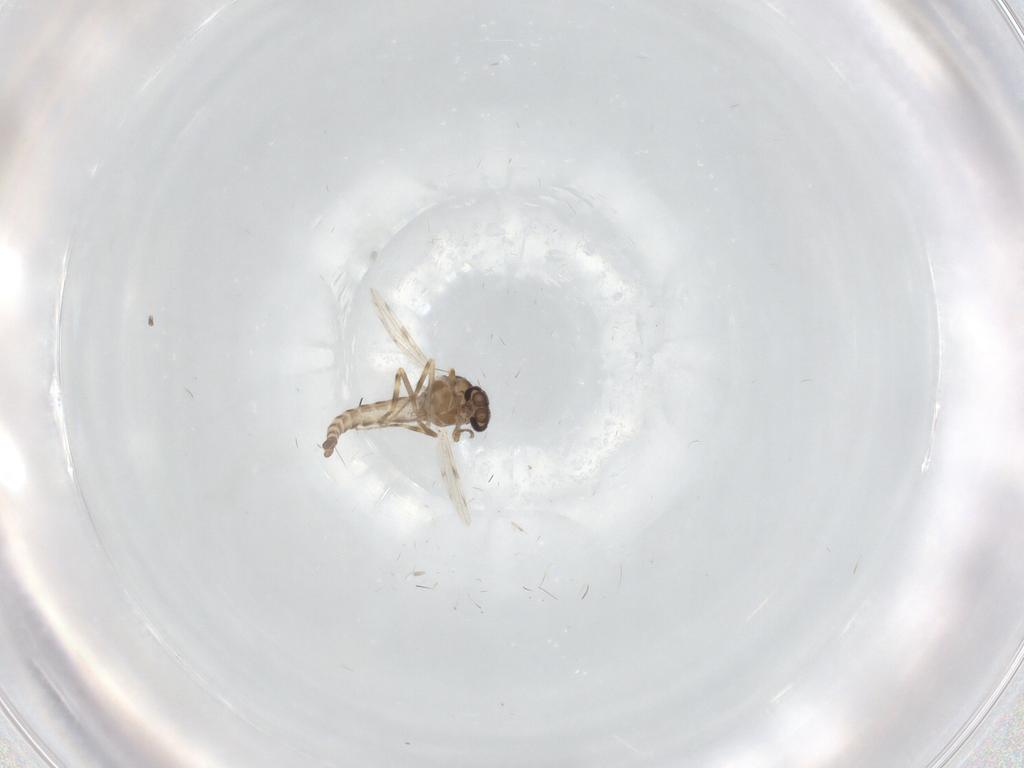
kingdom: Animalia
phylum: Arthropoda
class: Insecta
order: Diptera
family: Ceratopogonidae
